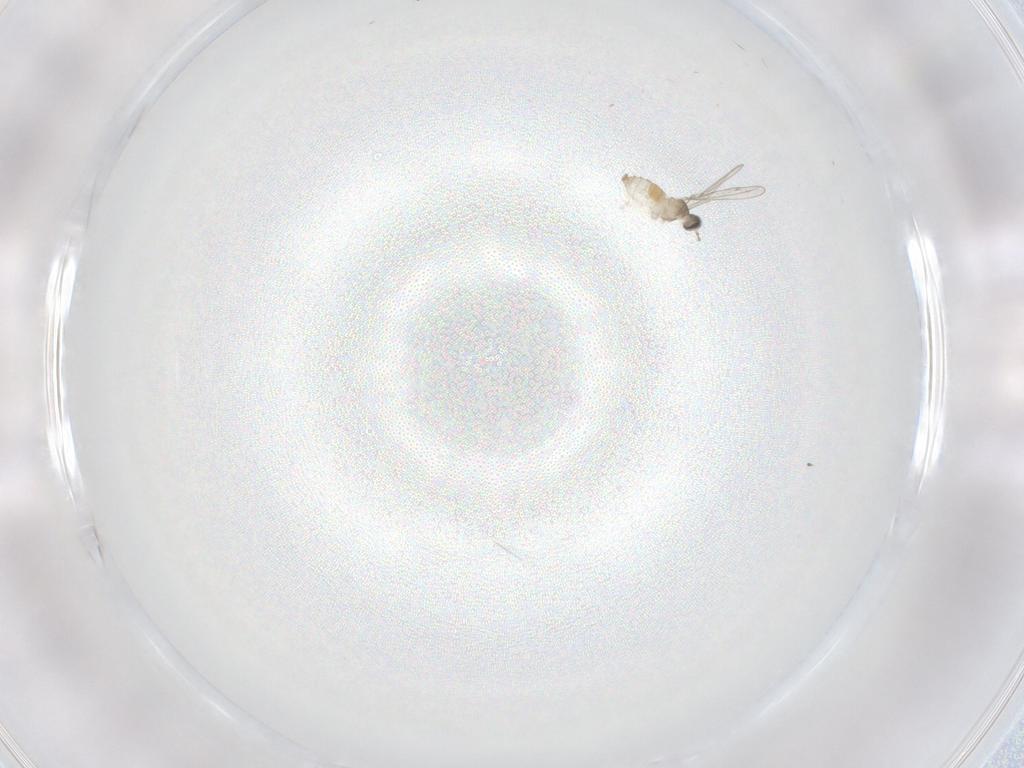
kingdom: Animalia
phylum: Arthropoda
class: Insecta
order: Diptera
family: Cecidomyiidae
